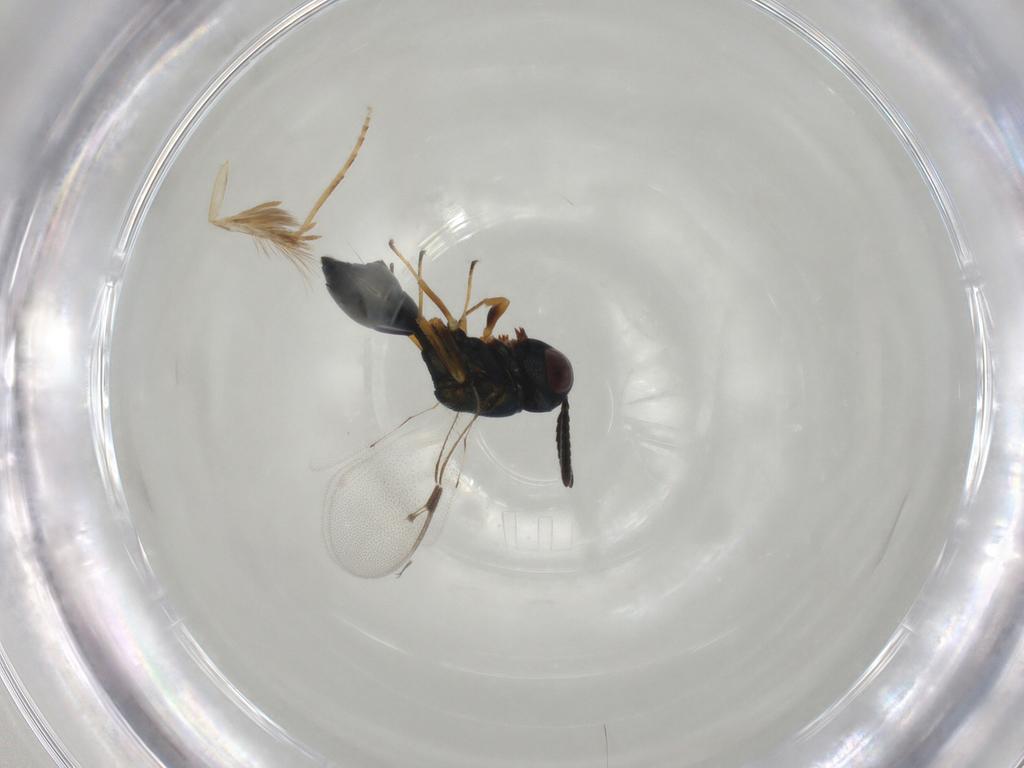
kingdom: Animalia
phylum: Arthropoda
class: Insecta
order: Hymenoptera
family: Pteromalidae
